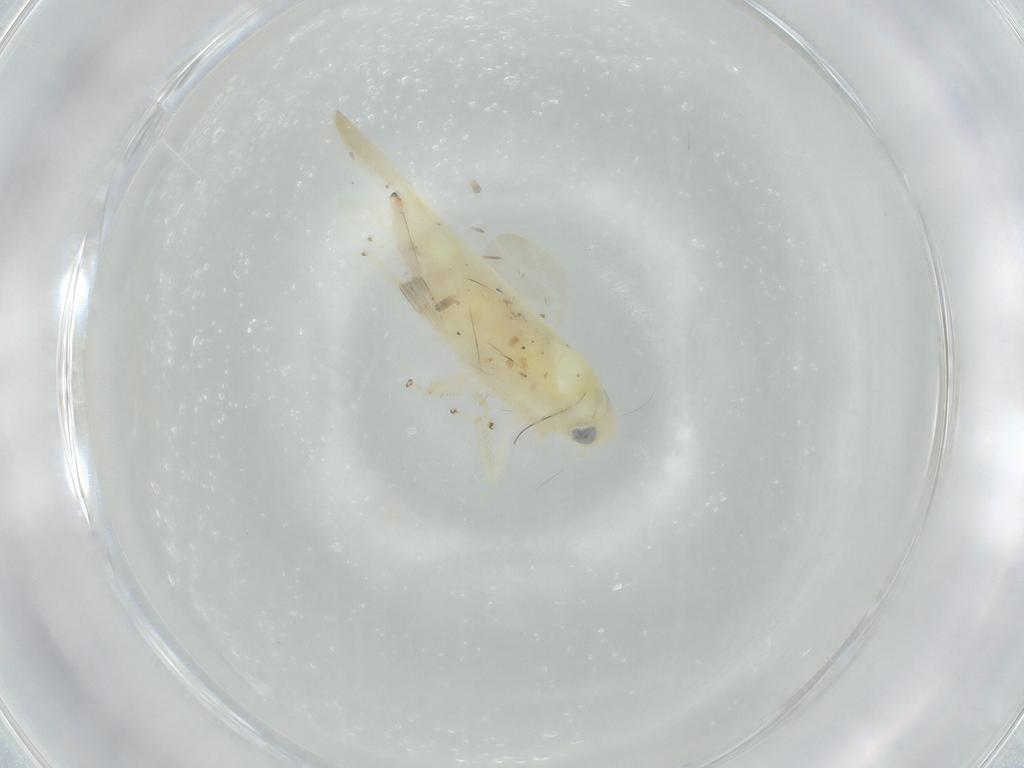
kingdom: Animalia
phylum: Arthropoda
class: Insecta
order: Hemiptera
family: Cicadellidae
